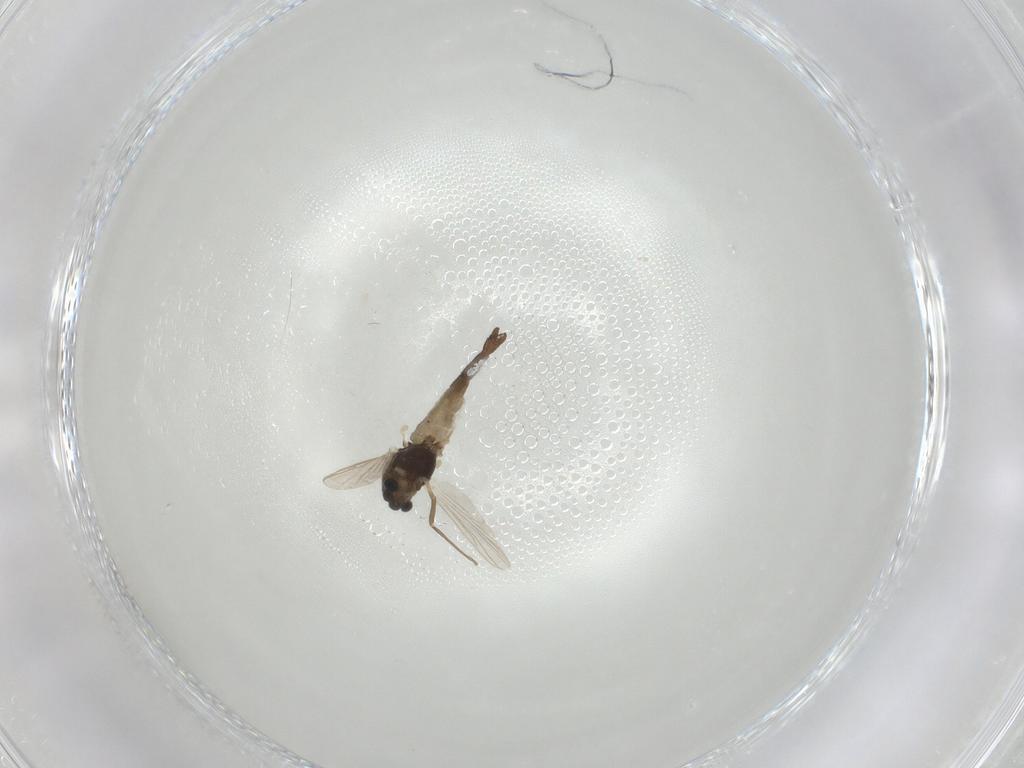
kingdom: Animalia
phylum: Arthropoda
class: Insecta
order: Diptera
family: Chironomidae
